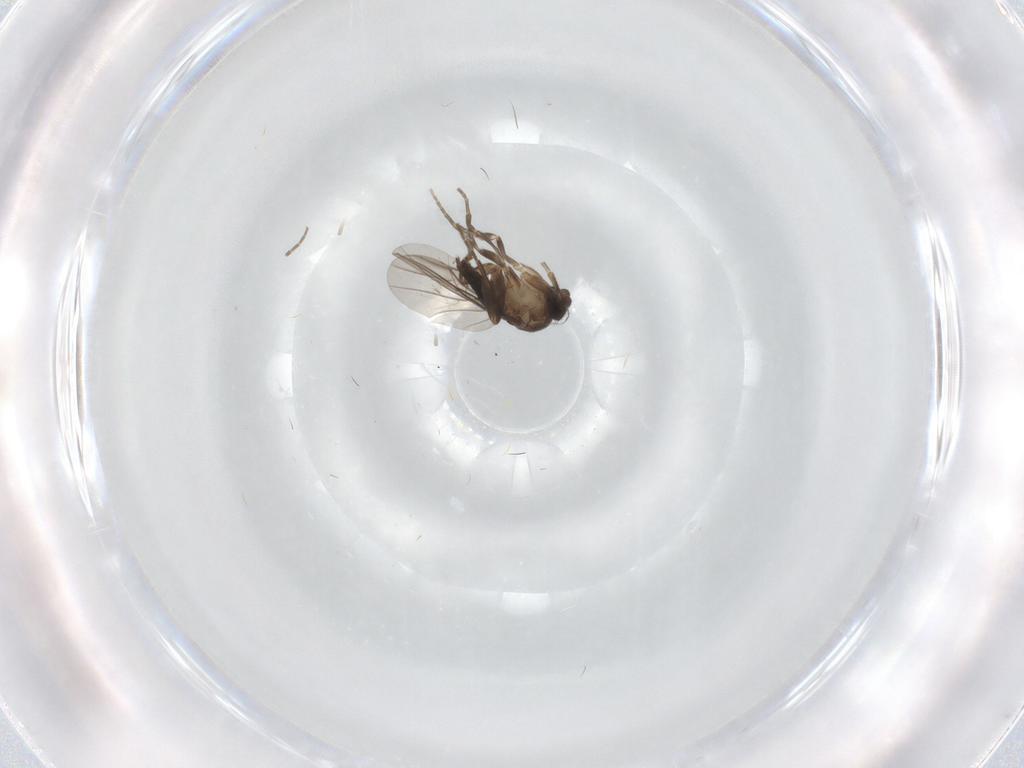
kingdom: Animalia
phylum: Arthropoda
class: Insecta
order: Diptera
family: Phoridae
